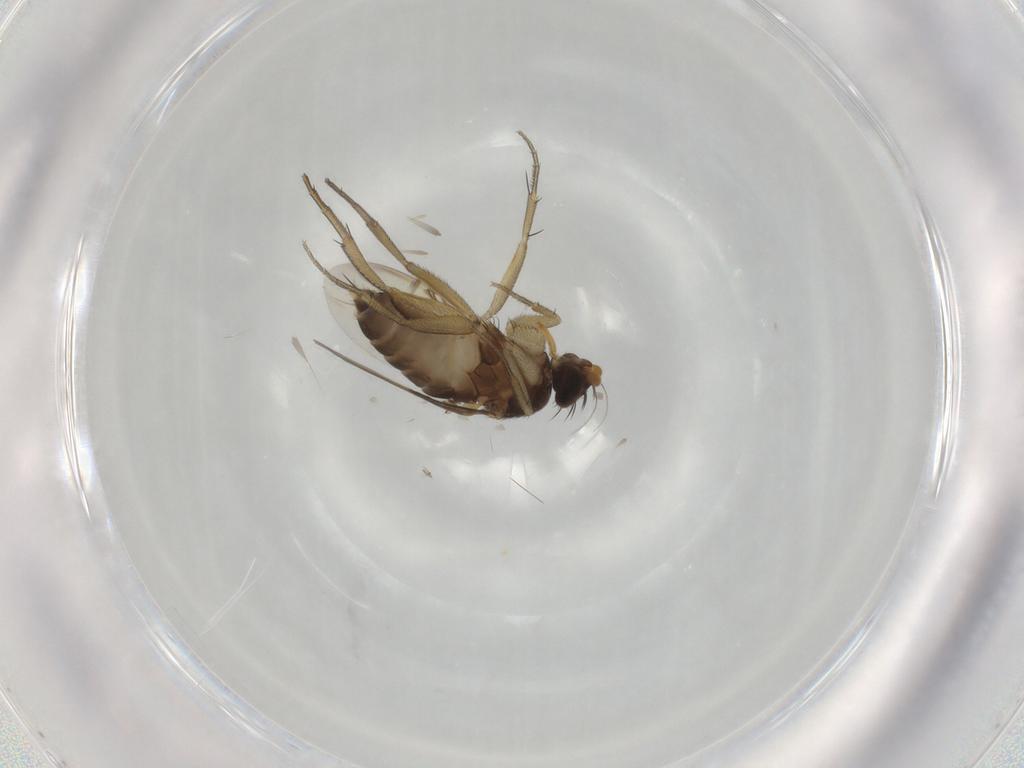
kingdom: Animalia
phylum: Arthropoda
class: Insecta
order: Diptera
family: Phoridae
